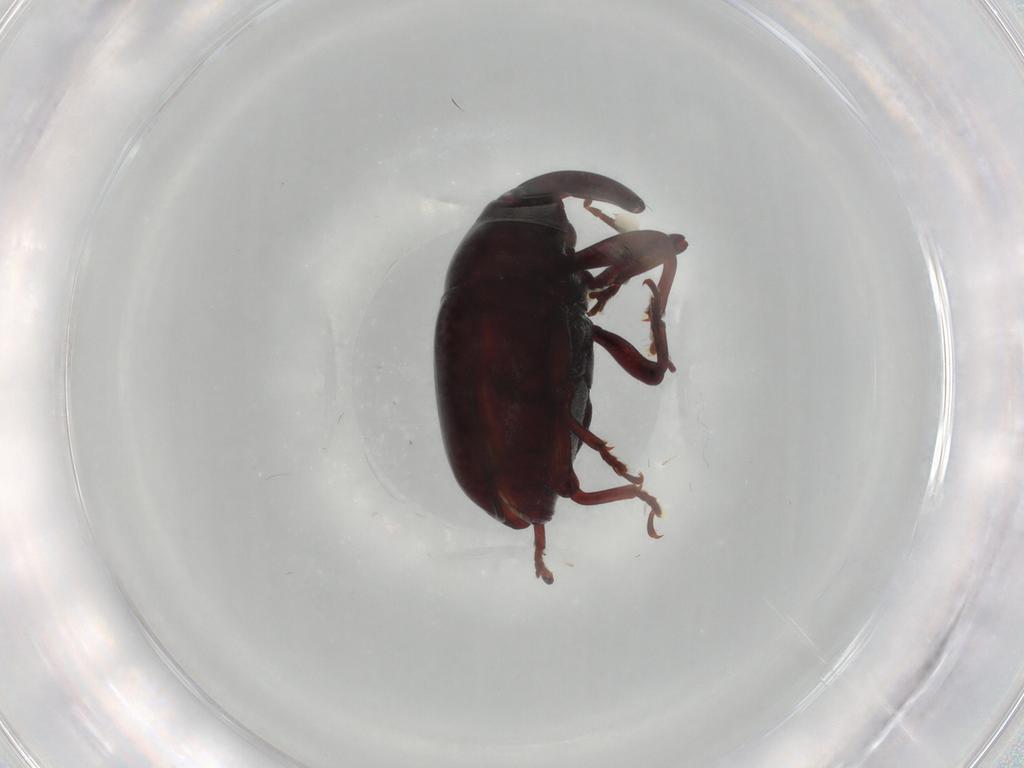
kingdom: Animalia
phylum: Arthropoda
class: Insecta
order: Coleoptera
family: Curculionidae
